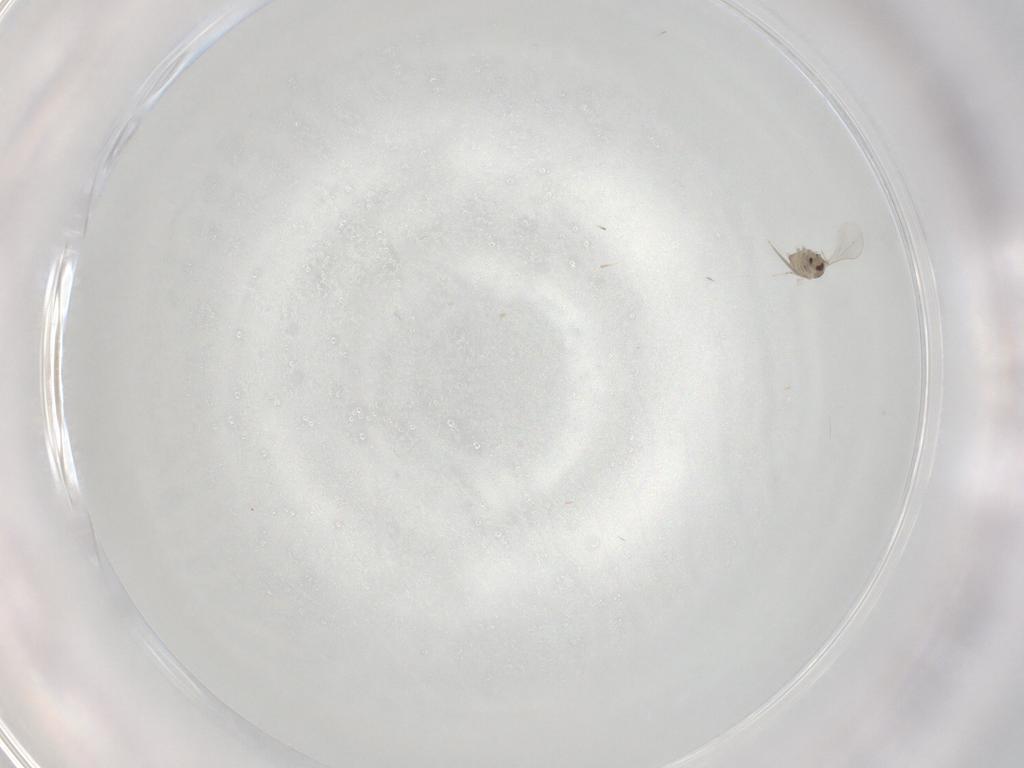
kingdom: Animalia
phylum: Arthropoda
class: Insecta
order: Diptera
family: Cecidomyiidae
